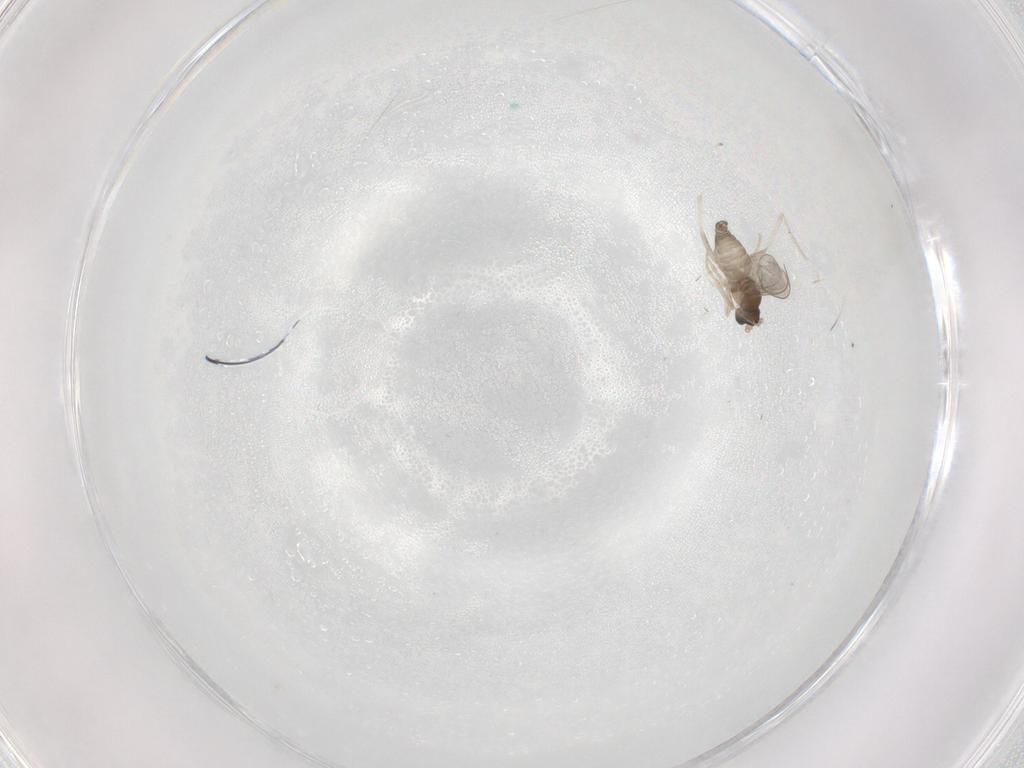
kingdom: Animalia
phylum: Arthropoda
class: Insecta
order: Diptera
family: Cecidomyiidae
